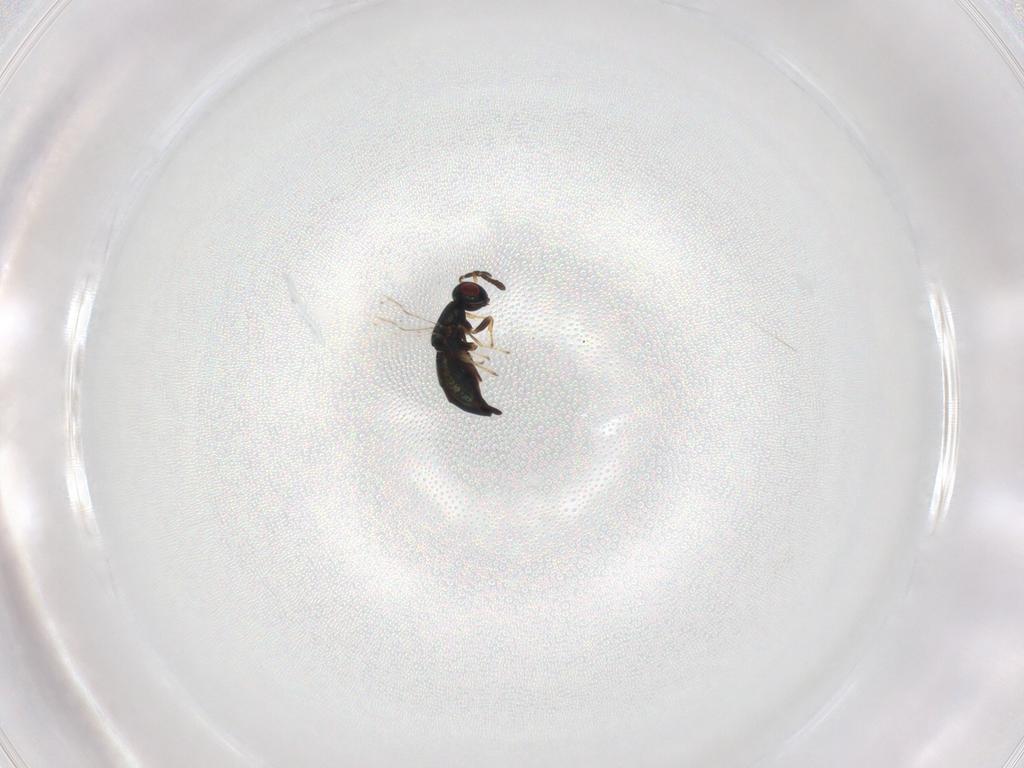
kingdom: Animalia
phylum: Arthropoda
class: Insecta
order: Hymenoptera
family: Pteromalidae
